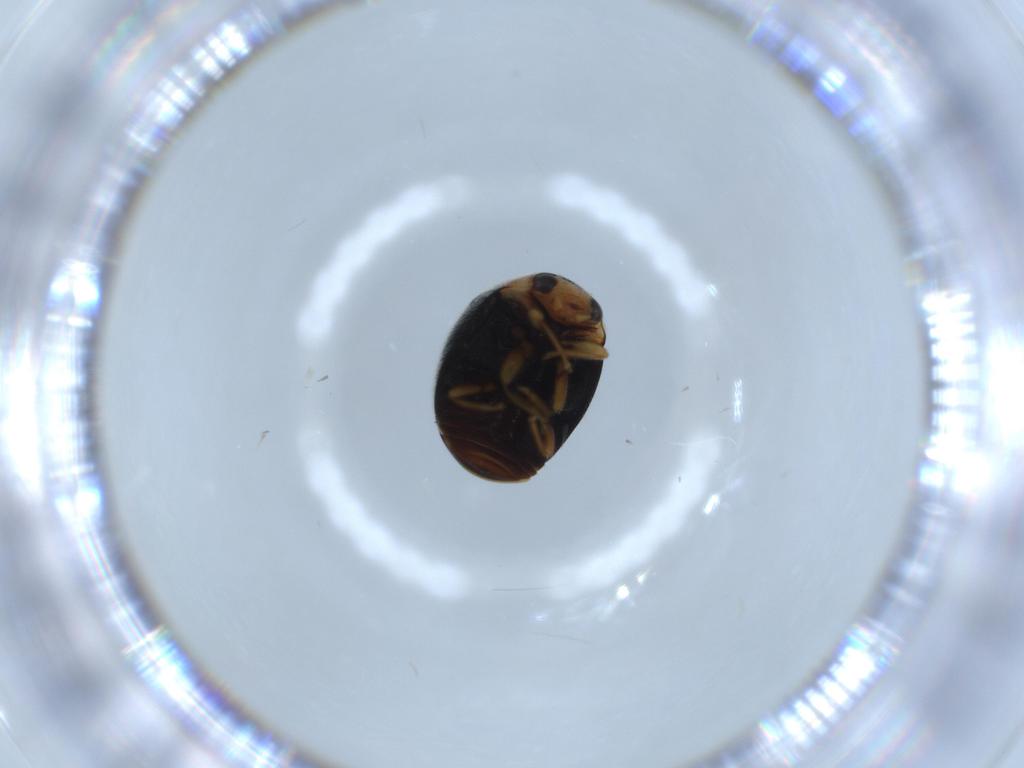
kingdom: Animalia
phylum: Arthropoda
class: Insecta
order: Coleoptera
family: Coccinellidae
